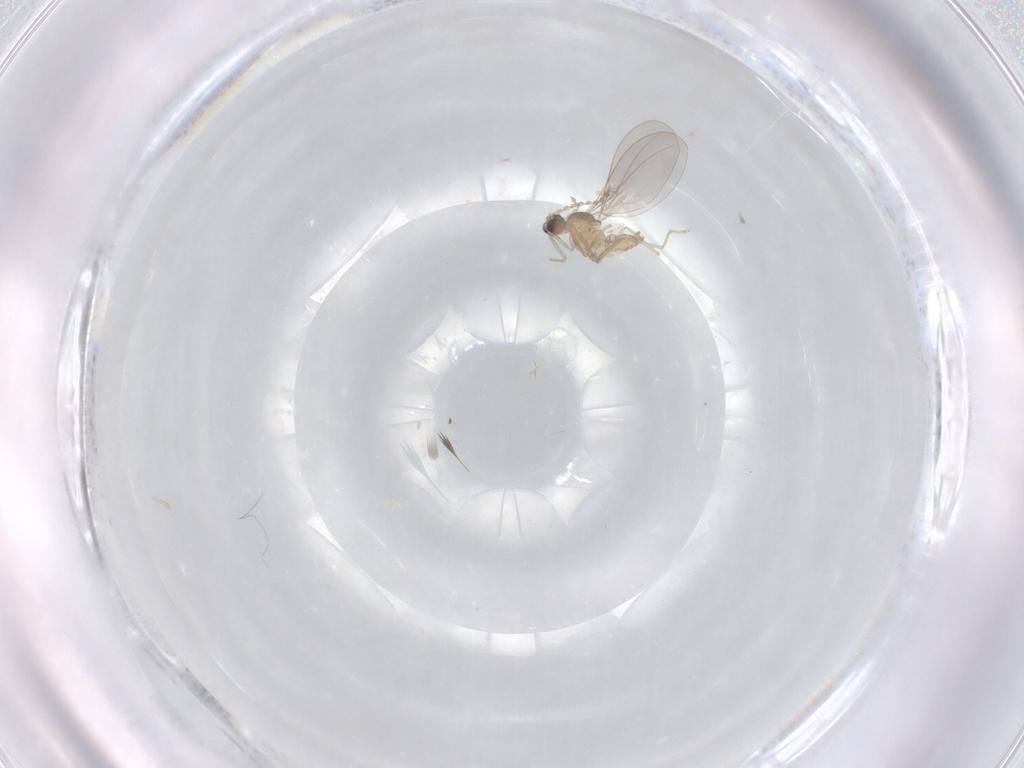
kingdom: Animalia
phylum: Arthropoda
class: Insecta
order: Diptera
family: Cecidomyiidae
